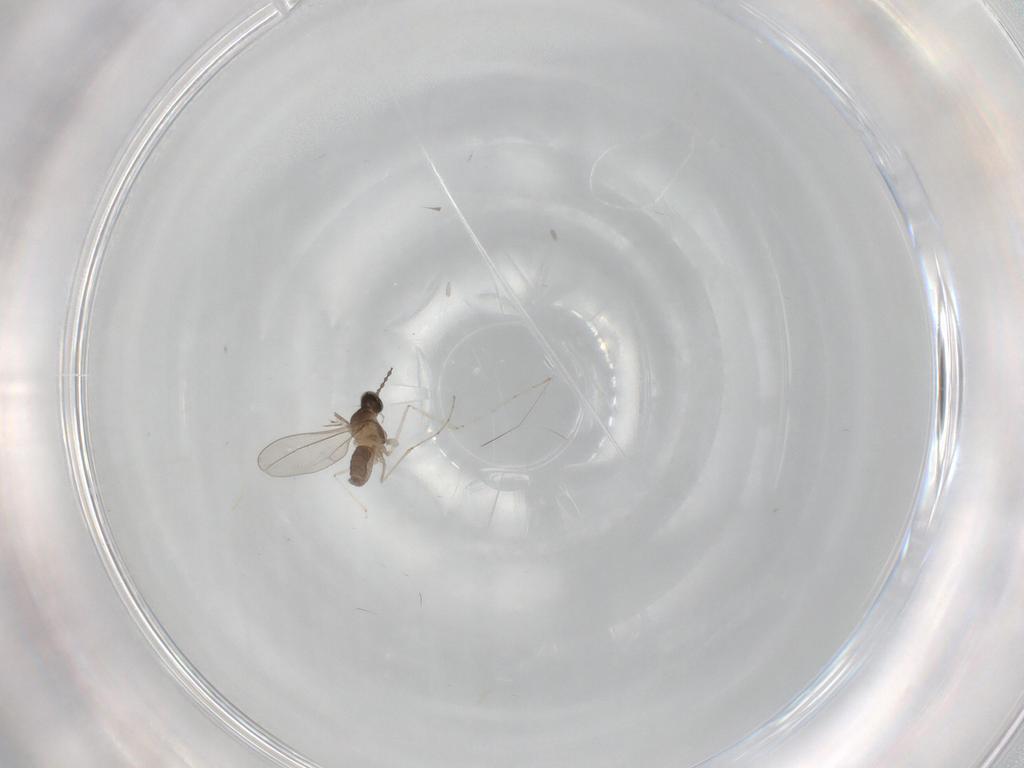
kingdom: Animalia
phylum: Arthropoda
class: Insecta
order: Diptera
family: Cecidomyiidae
